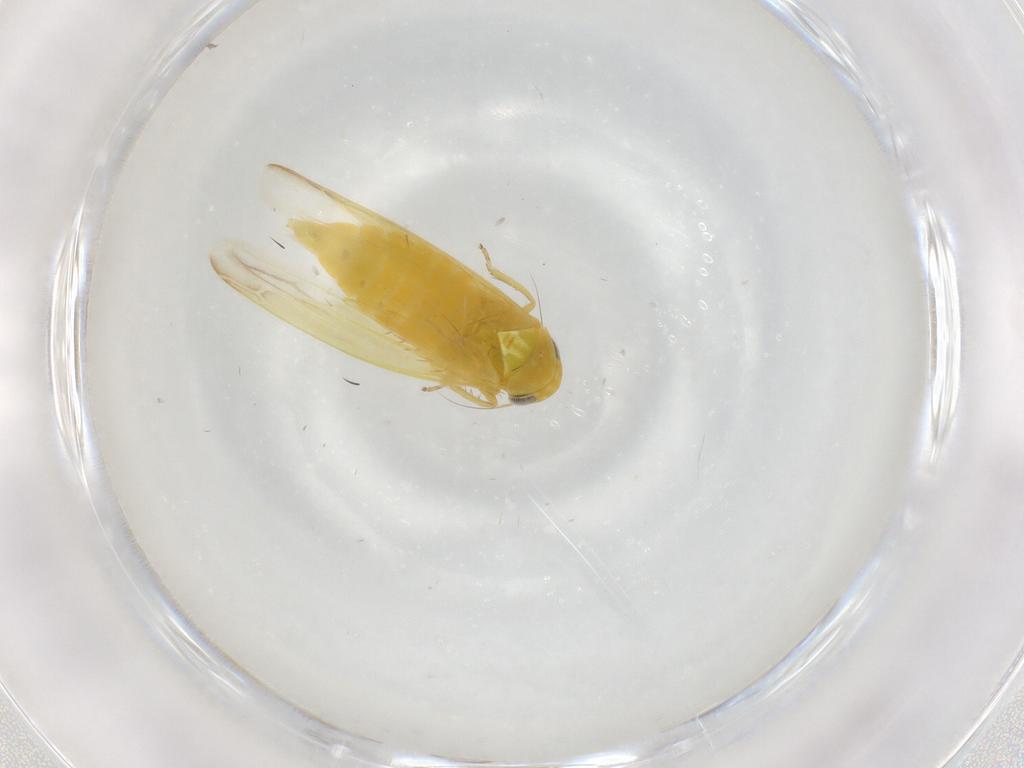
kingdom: Animalia
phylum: Arthropoda
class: Insecta
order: Hemiptera
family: Cicadellidae
